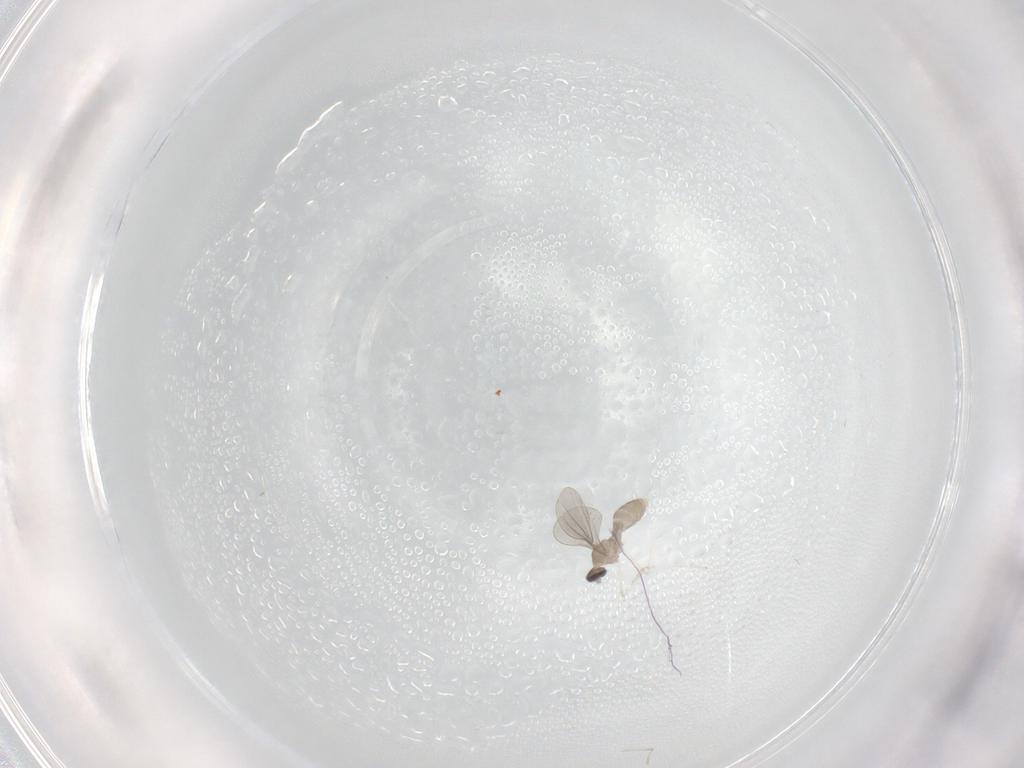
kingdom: Animalia
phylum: Arthropoda
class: Insecta
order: Diptera
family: Cecidomyiidae
